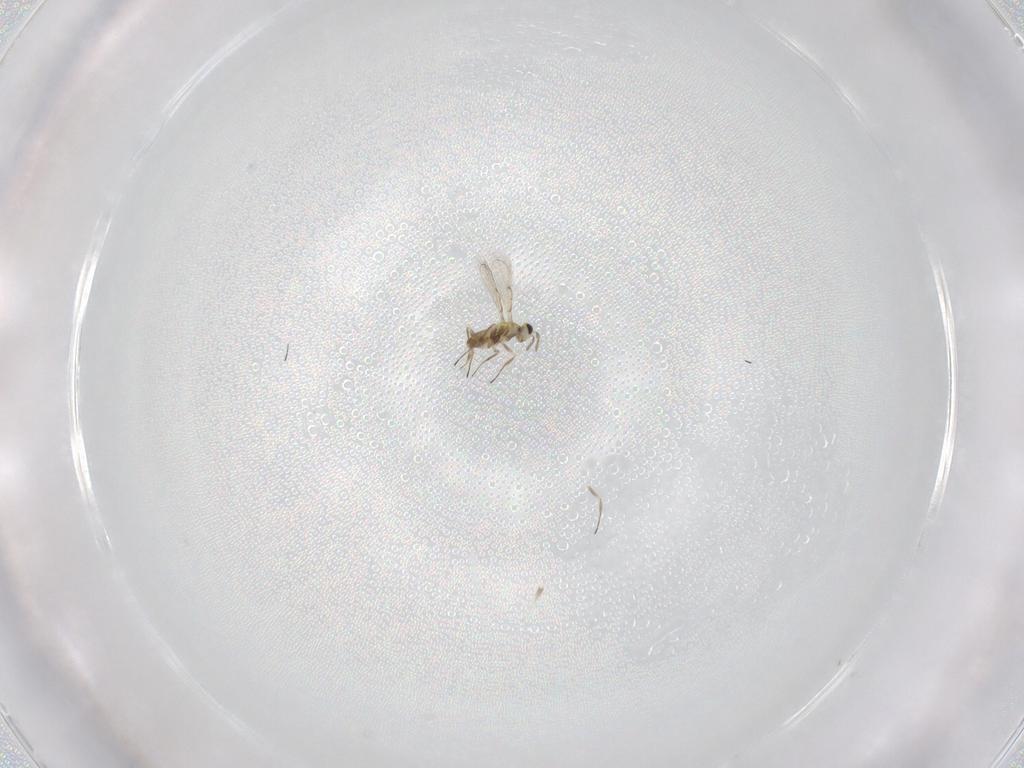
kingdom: Animalia
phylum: Arthropoda
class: Insecta
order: Hymenoptera
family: Trichogrammatidae
